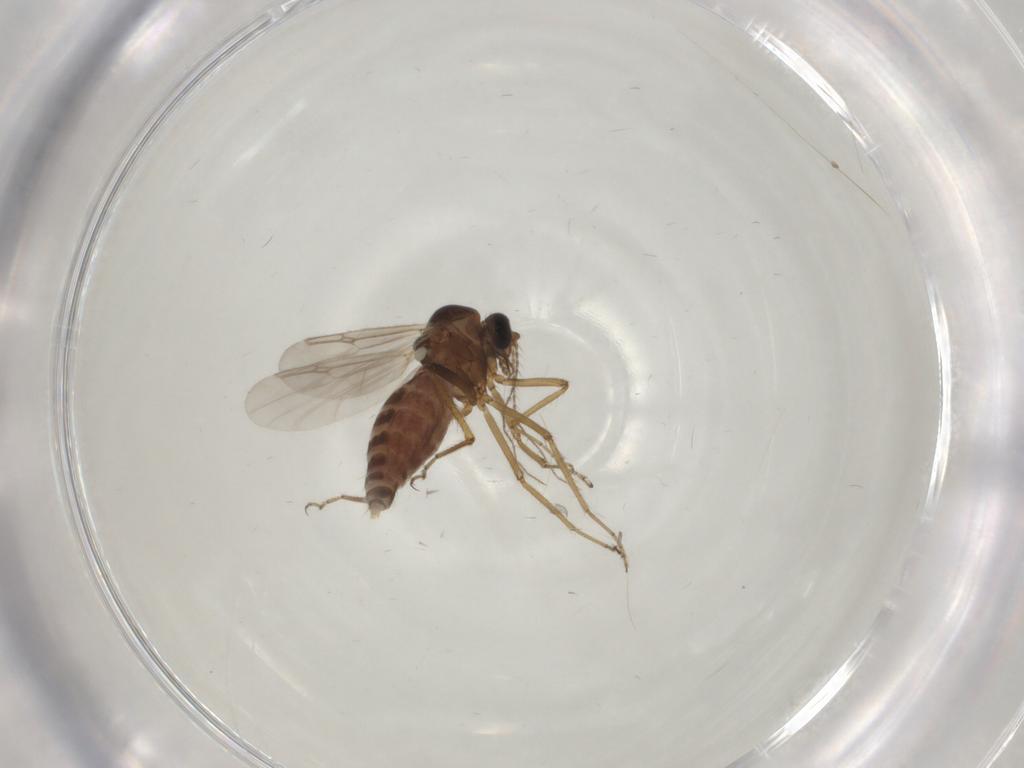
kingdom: Animalia
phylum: Arthropoda
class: Insecta
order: Diptera
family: Ceratopogonidae
